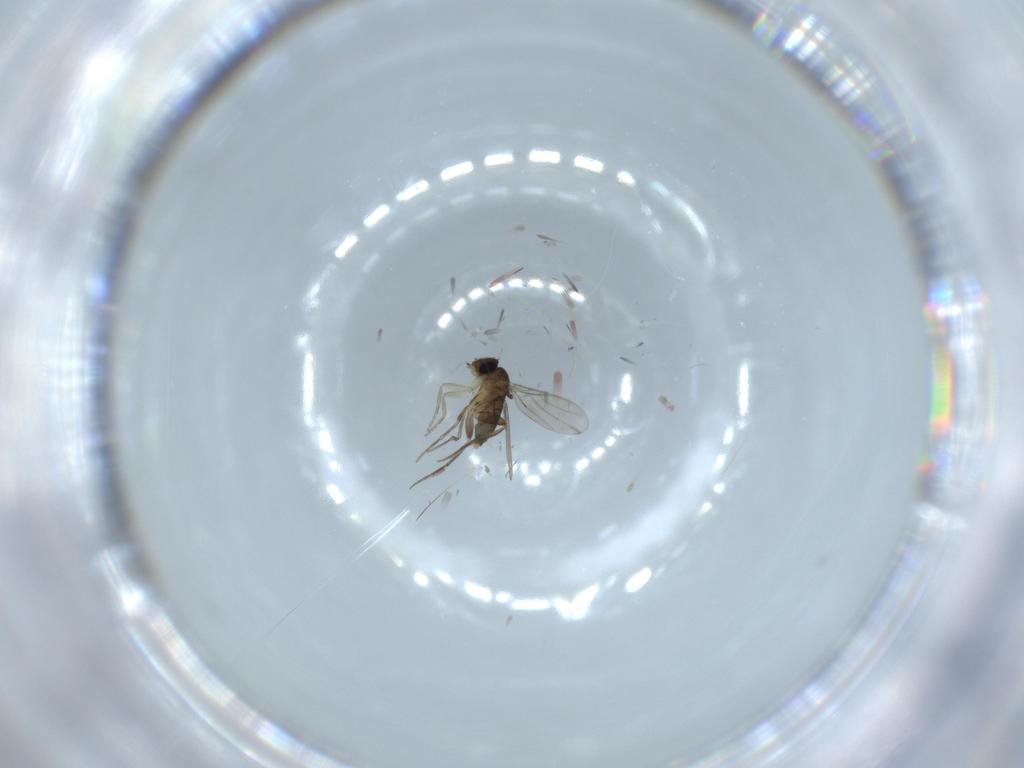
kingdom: Animalia
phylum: Arthropoda
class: Insecta
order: Diptera
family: Phoridae
